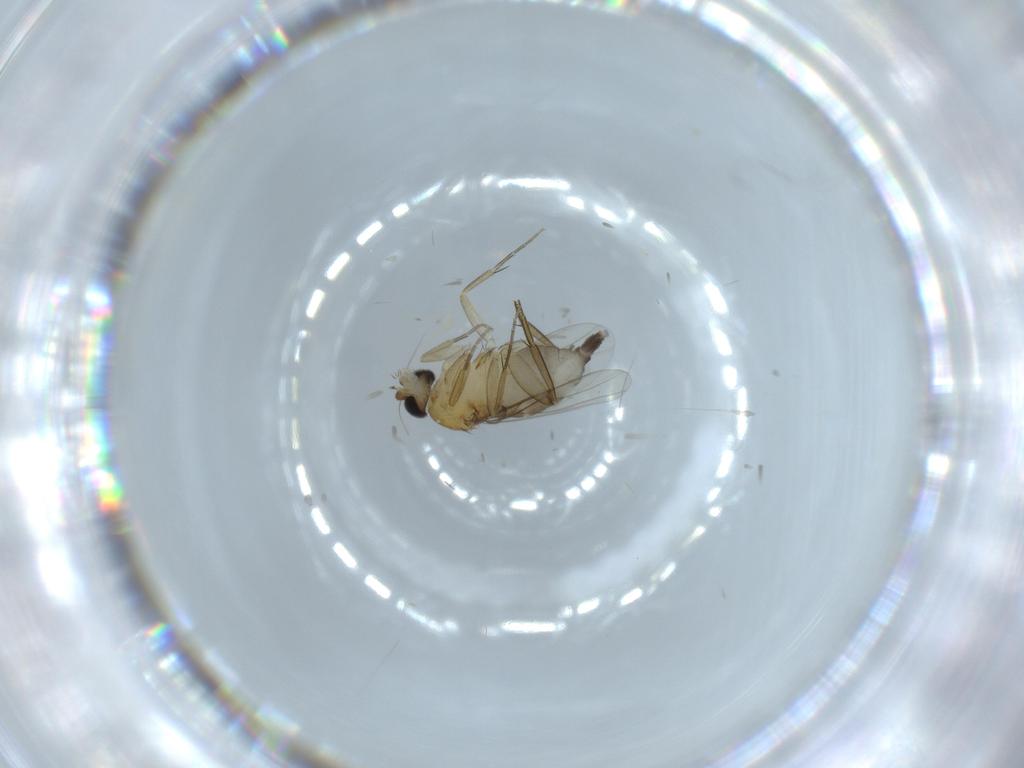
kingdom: Animalia
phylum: Arthropoda
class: Insecta
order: Diptera
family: Phoridae
